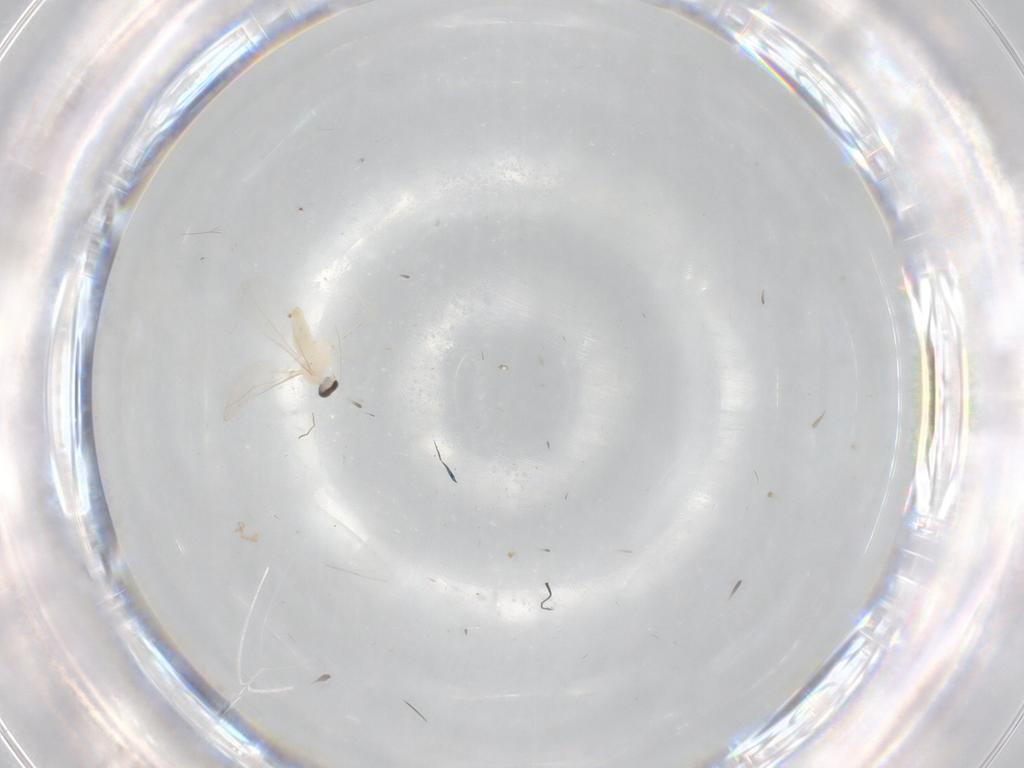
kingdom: Animalia
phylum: Arthropoda
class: Insecta
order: Diptera
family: Cecidomyiidae
